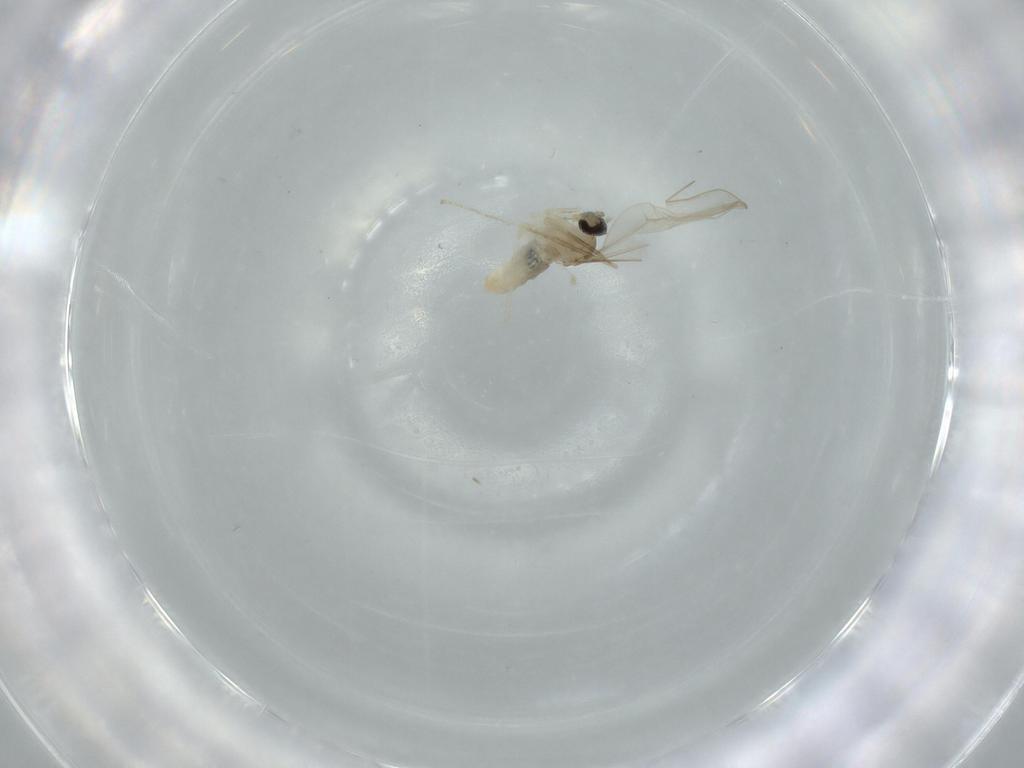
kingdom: Animalia
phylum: Arthropoda
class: Insecta
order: Diptera
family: Cecidomyiidae
